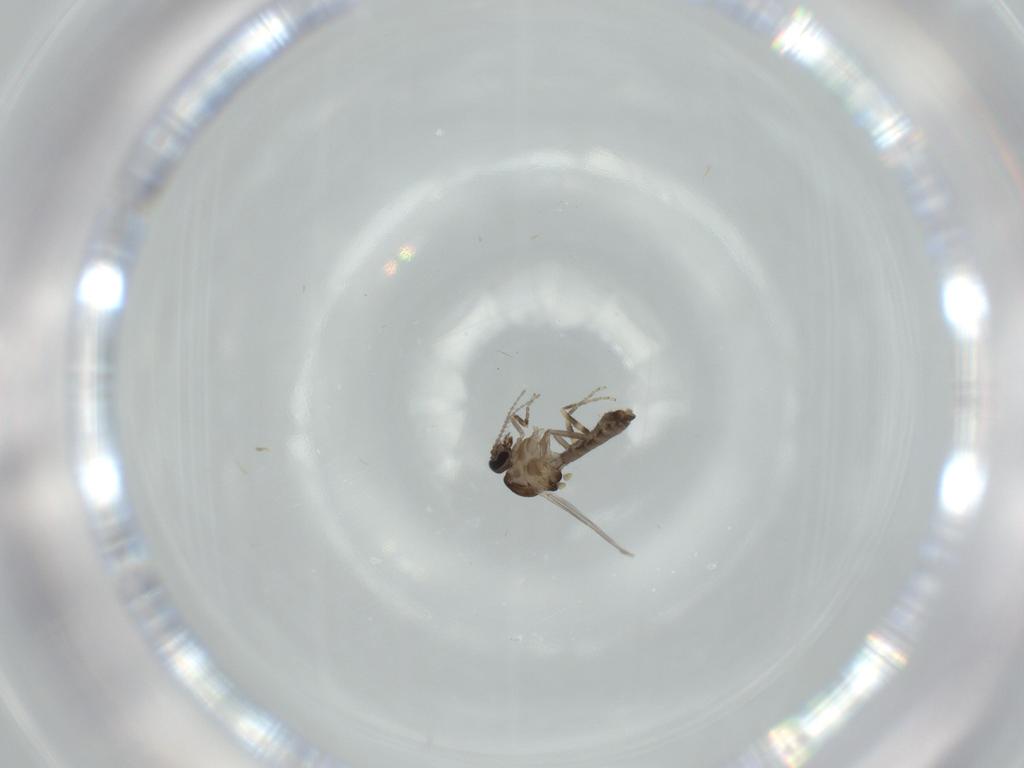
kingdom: Animalia
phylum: Arthropoda
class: Insecta
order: Diptera
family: Ceratopogonidae
